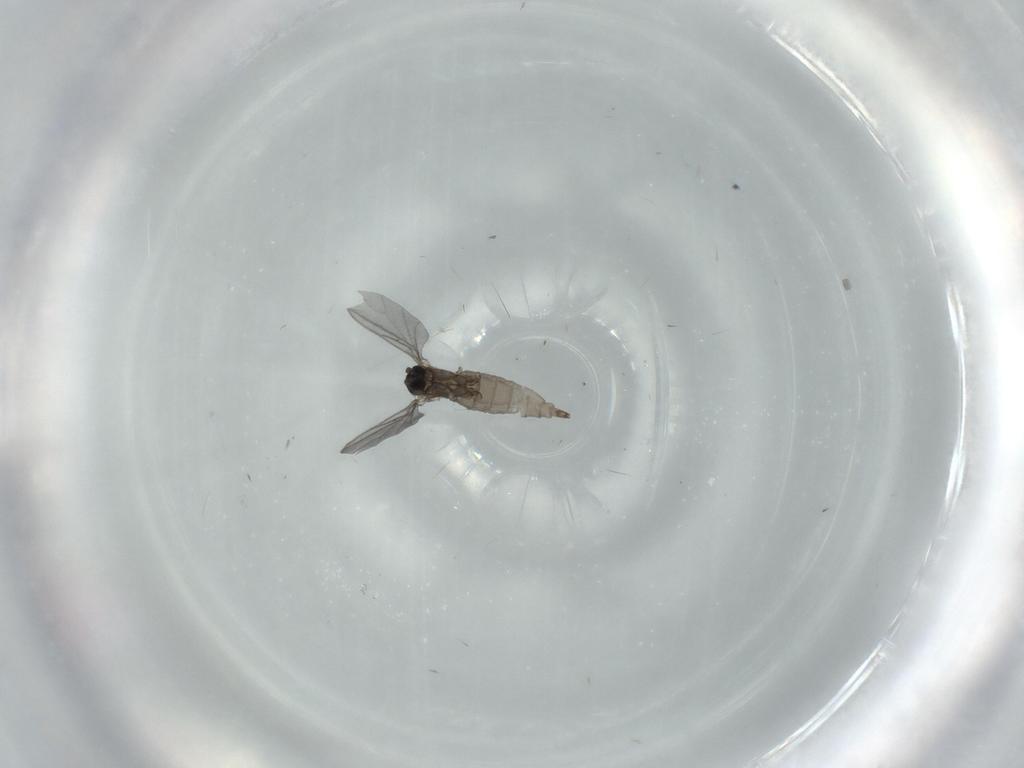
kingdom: Animalia
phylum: Arthropoda
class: Insecta
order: Diptera
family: Sciaridae
